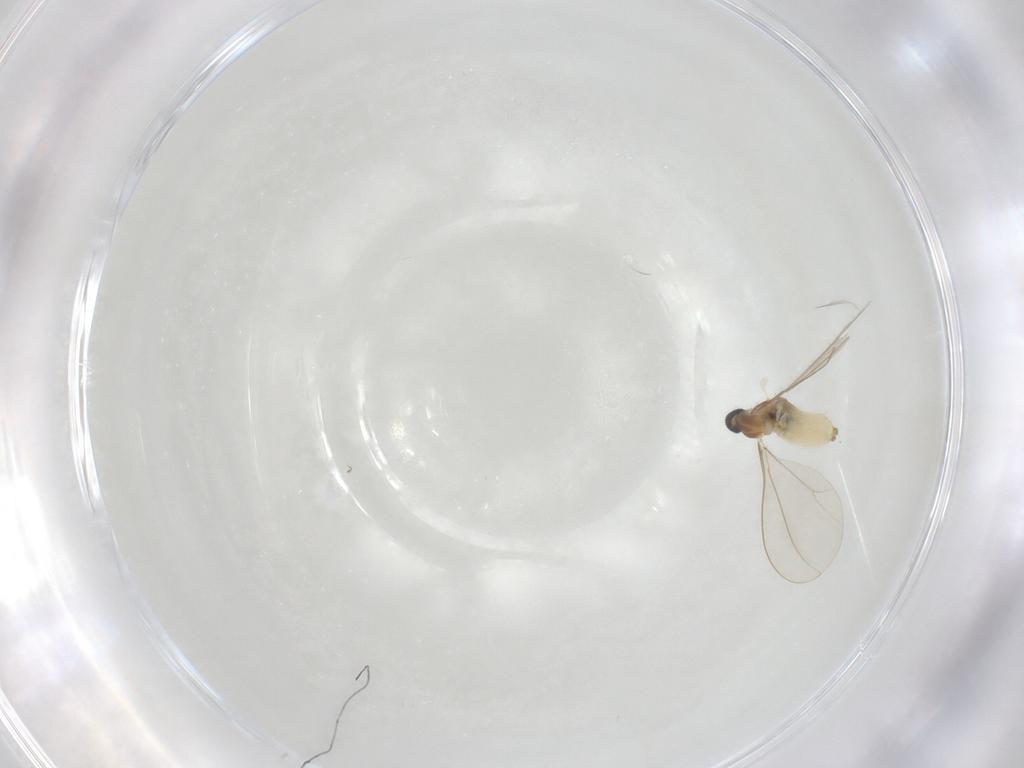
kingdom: Animalia
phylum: Arthropoda
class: Insecta
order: Diptera
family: Cecidomyiidae
